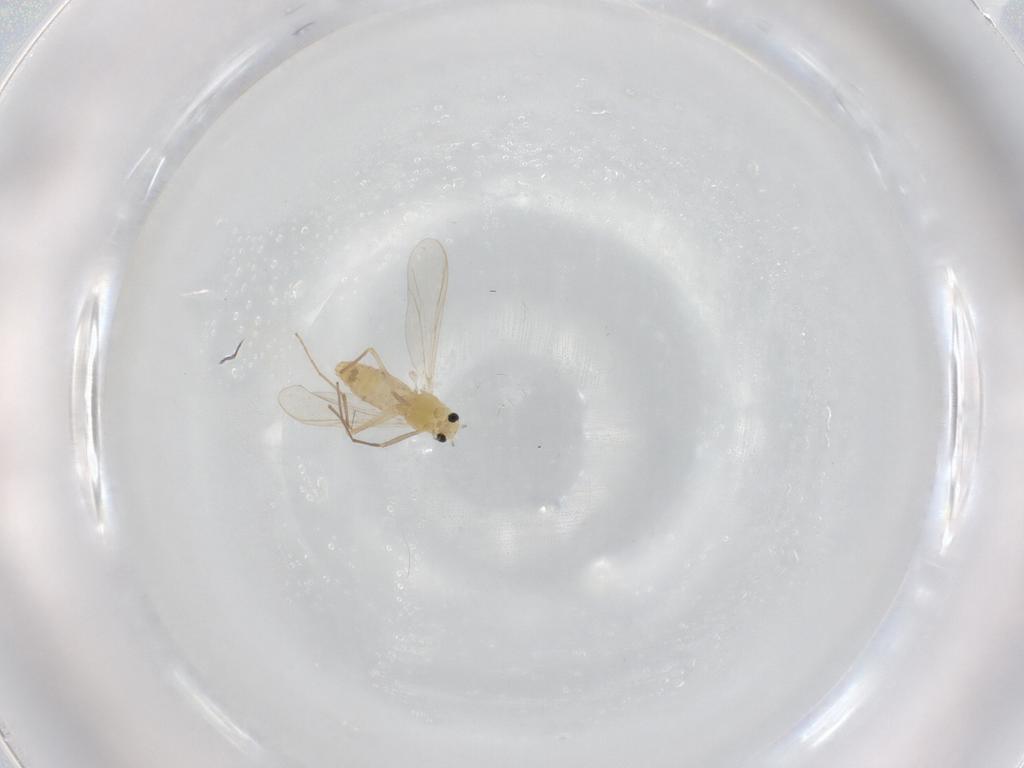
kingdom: Animalia
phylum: Arthropoda
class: Insecta
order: Diptera
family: Chironomidae
